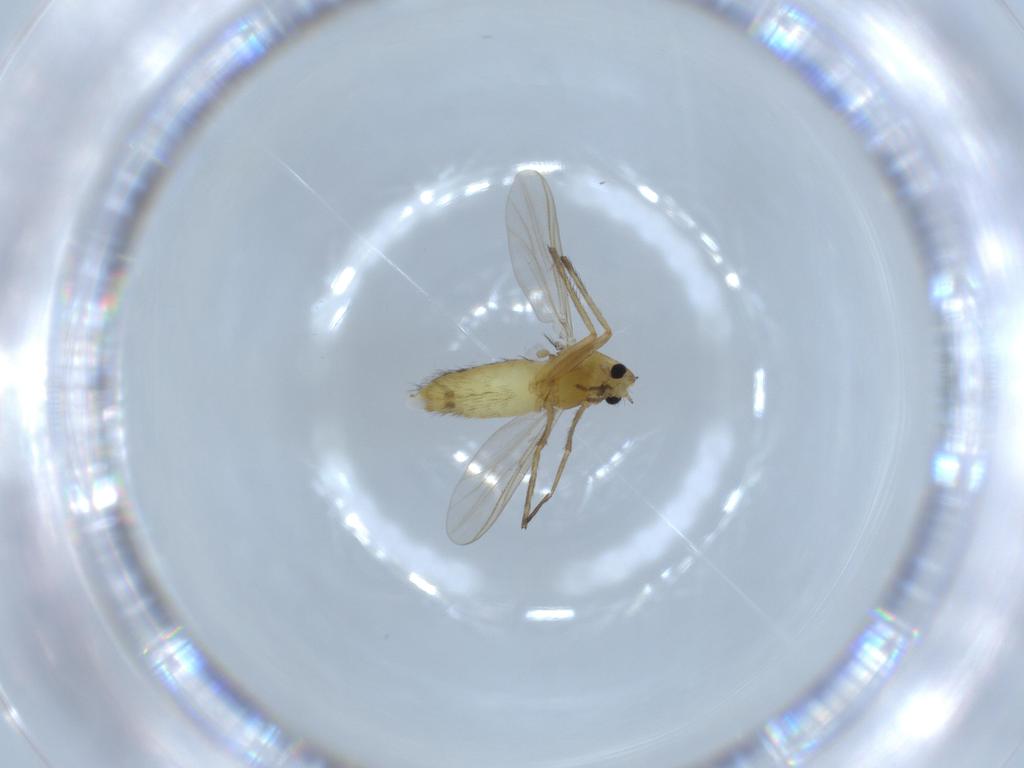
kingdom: Animalia
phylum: Arthropoda
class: Insecta
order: Diptera
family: Chironomidae
